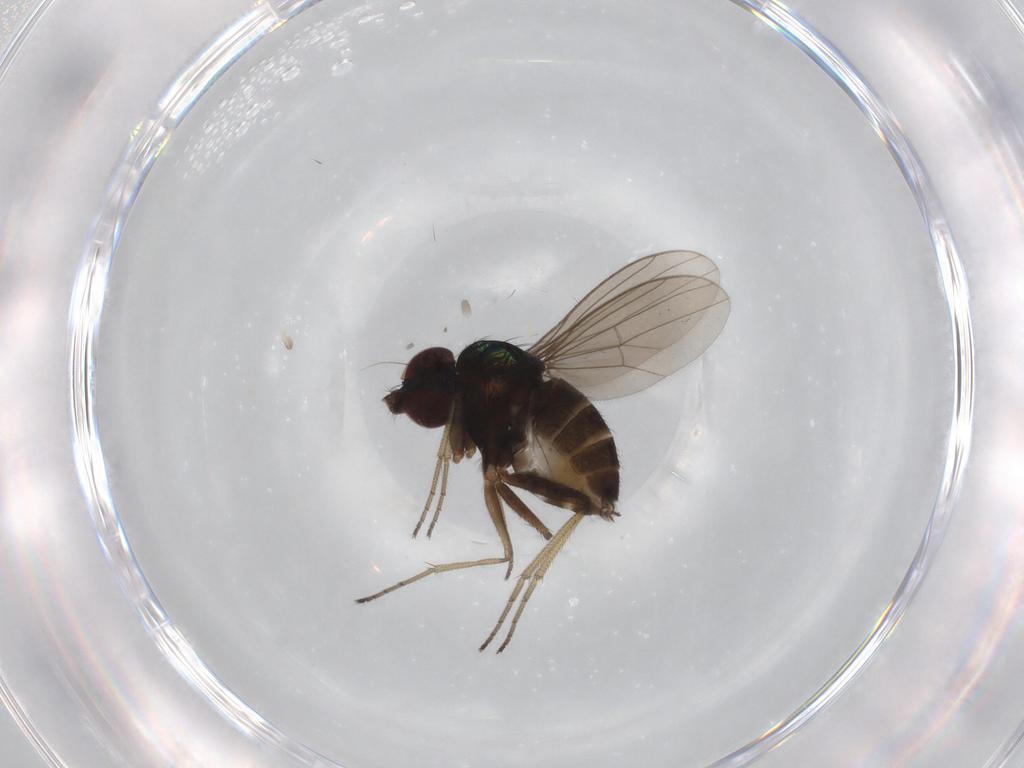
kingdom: Animalia
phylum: Arthropoda
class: Insecta
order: Diptera
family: Dolichopodidae
